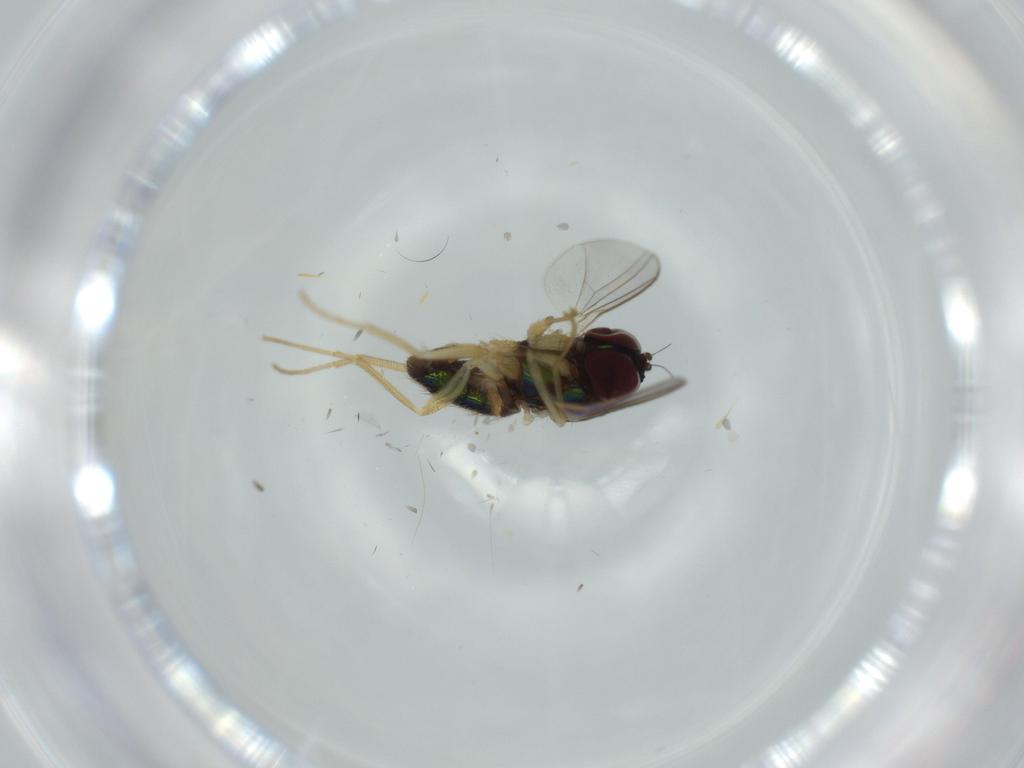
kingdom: Animalia
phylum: Arthropoda
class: Insecta
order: Diptera
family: Dolichopodidae
